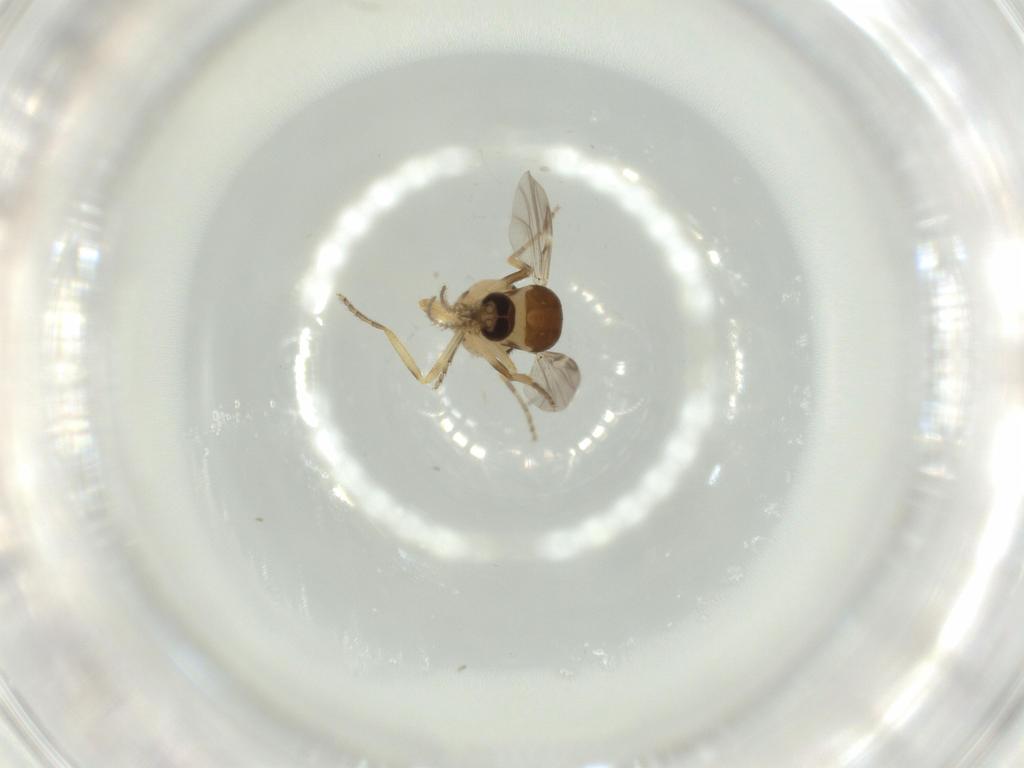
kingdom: Animalia
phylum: Arthropoda
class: Insecta
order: Diptera
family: Ceratopogonidae
